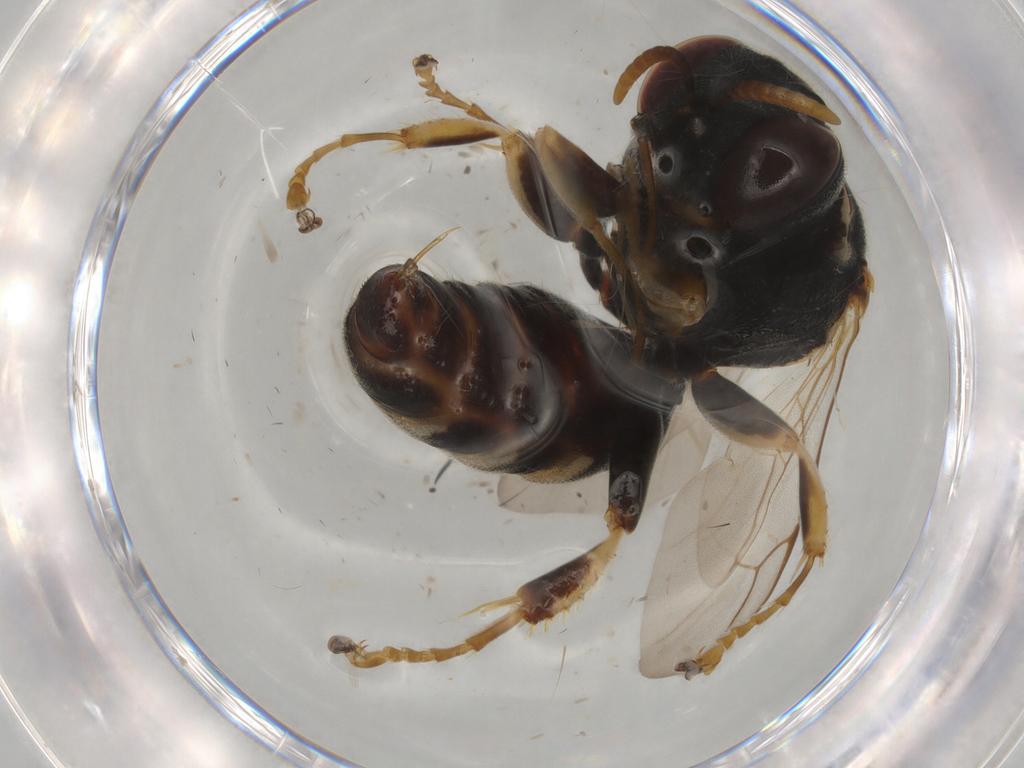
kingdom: Animalia
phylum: Arthropoda
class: Insecta
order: Hymenoptera
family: Crabronidae
